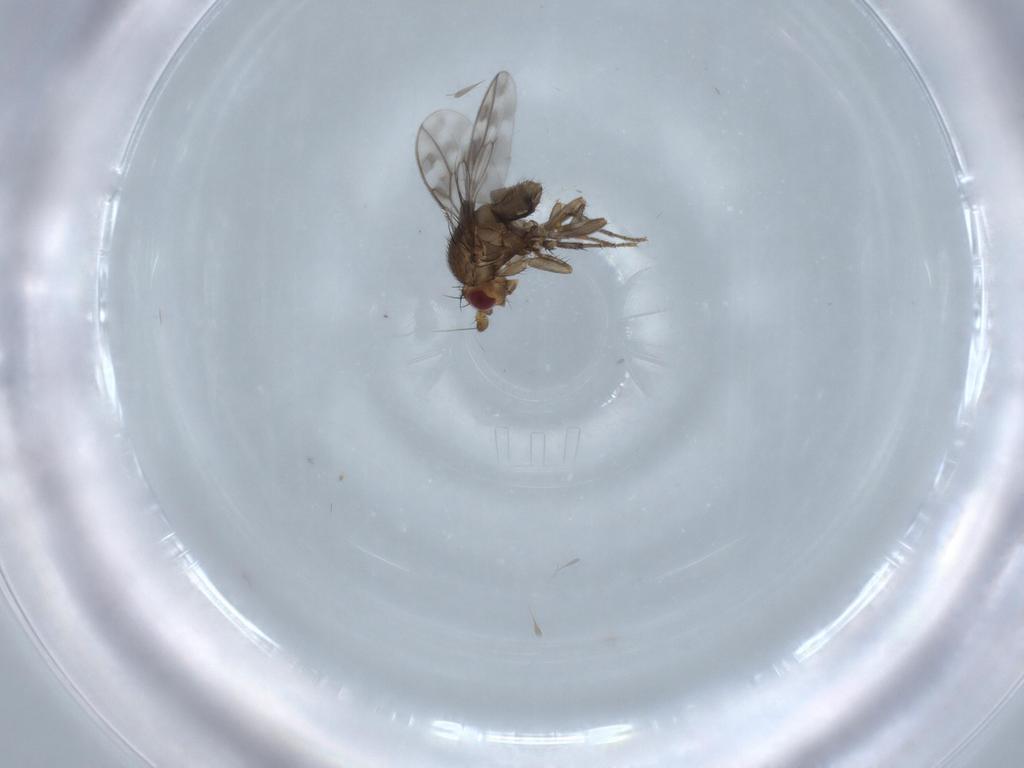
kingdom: Animalia
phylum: Arthropoda
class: Insecta
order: Diptera
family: Sphaeroceridae
